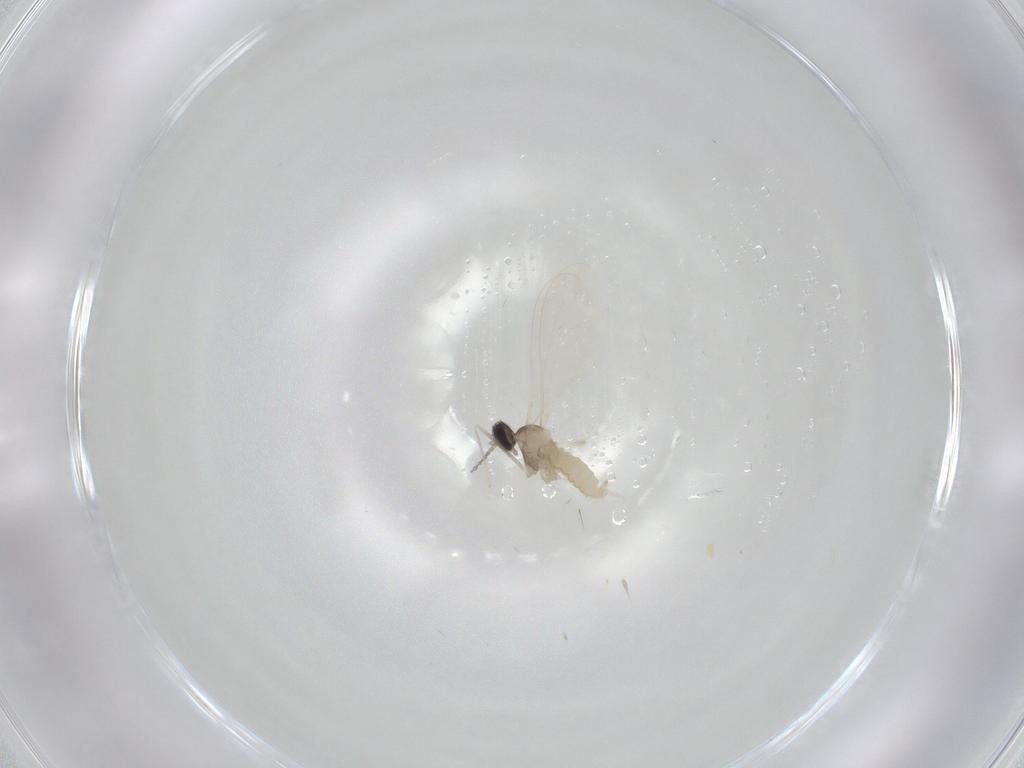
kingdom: Animalia
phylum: Arthropoda
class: Insecta
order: Diptera
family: Cecidomyiidae
